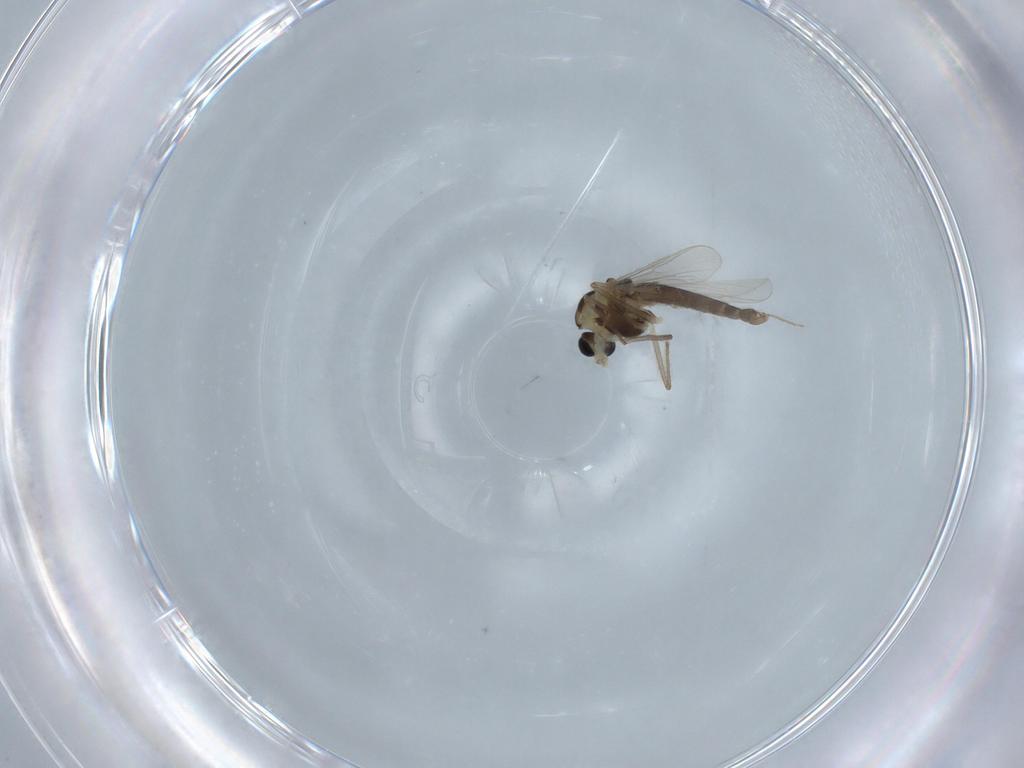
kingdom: Animalia
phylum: Arthropoda
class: Insecta
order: Diptera
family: Chironomidae
